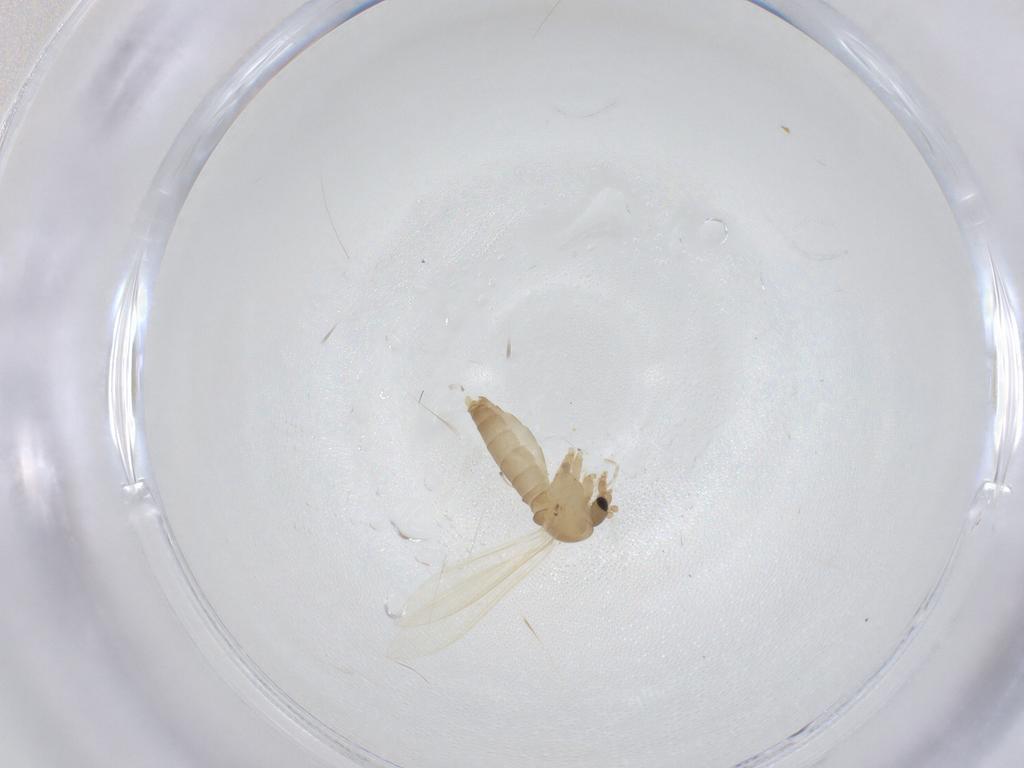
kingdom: Animalia
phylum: Arthropoda
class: Insecta
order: Diptera
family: Psychodidae
